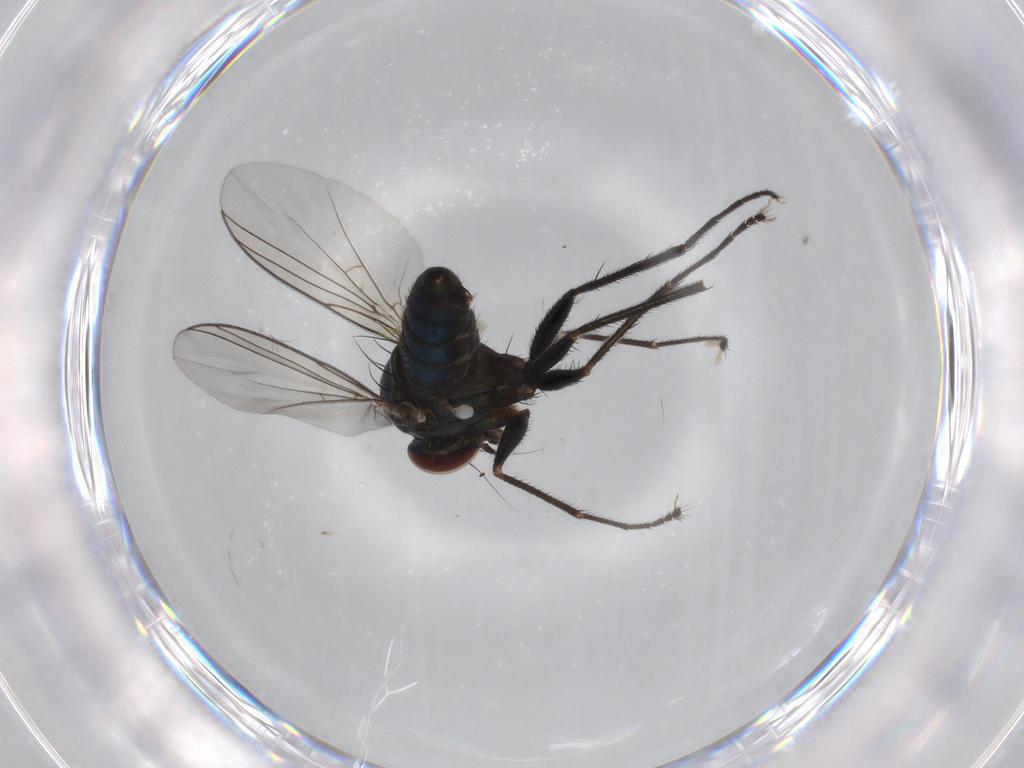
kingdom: Animalia
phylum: Arthropoda
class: Insecta
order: Diptera
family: Dolichopodidae
